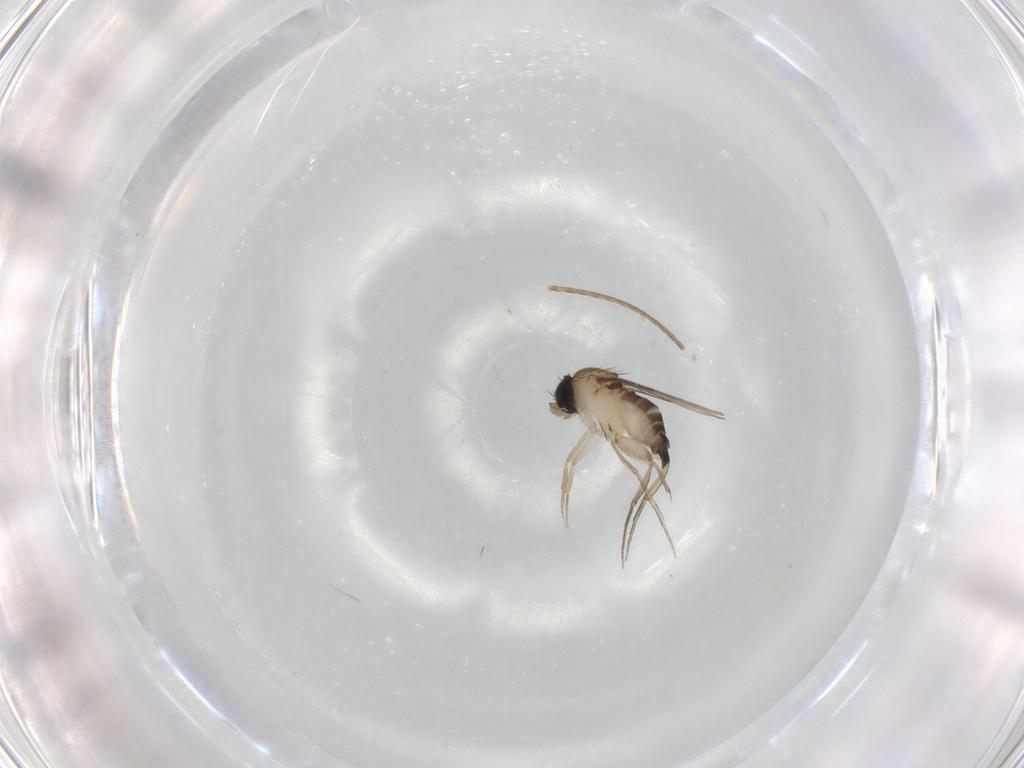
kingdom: Animalia
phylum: Arthropoda
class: Insecta
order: Diptera
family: Phoridae
